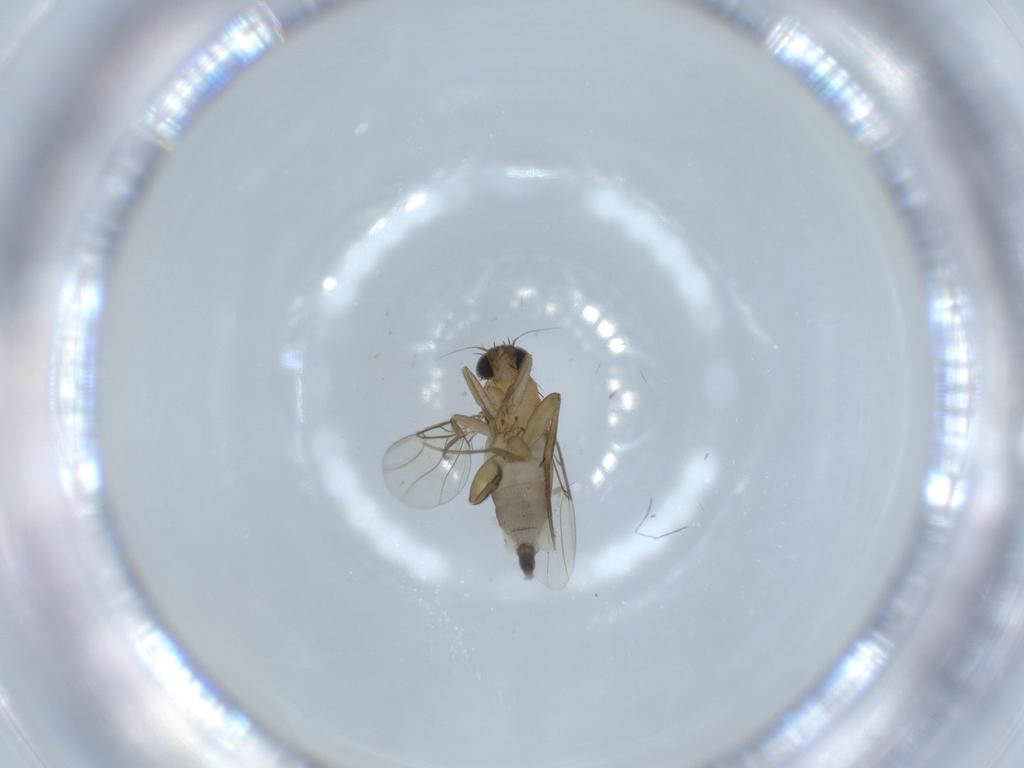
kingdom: Animalia
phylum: Arthropoda
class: Insecta
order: Diptera
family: Phoridae
